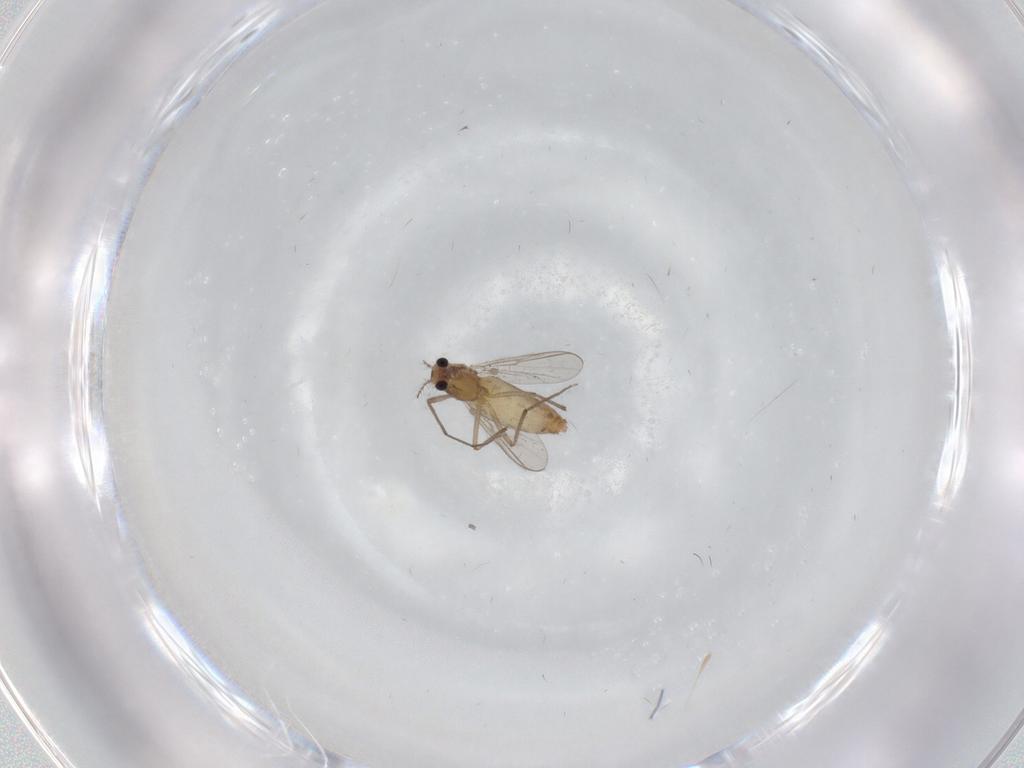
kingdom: Animalia
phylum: Arthropoda
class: Insecta
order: Diptera
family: Chironomidae
